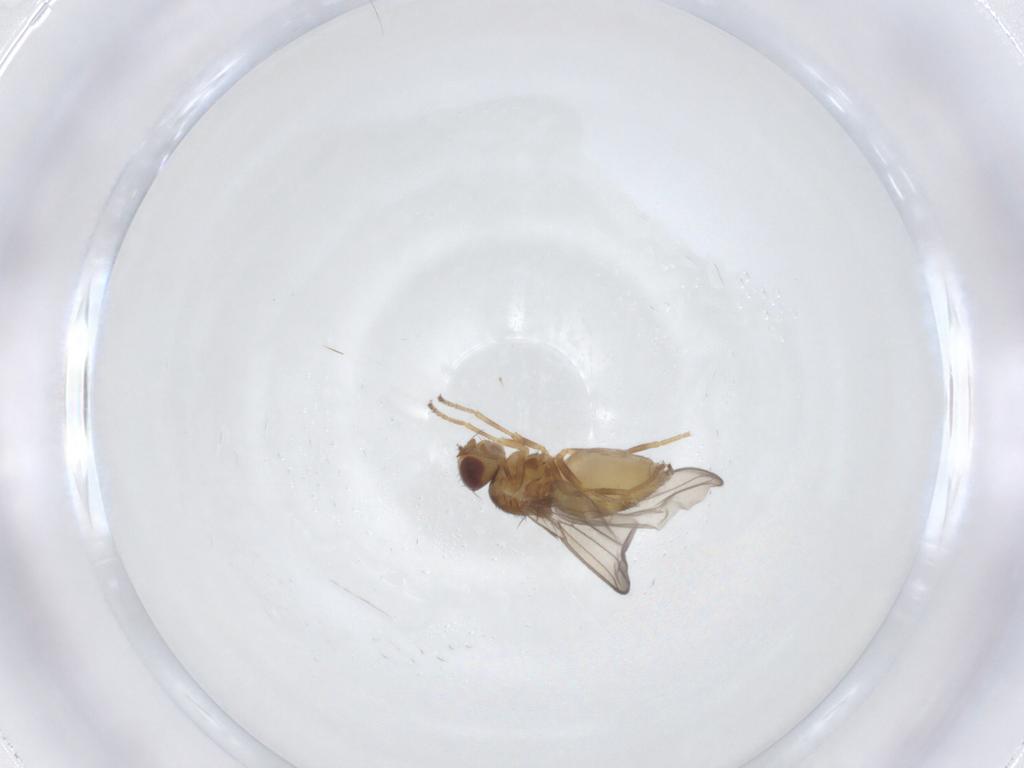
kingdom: Animalia
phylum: Arthropoda
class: Insecta
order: Diptera
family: Chloropidae
